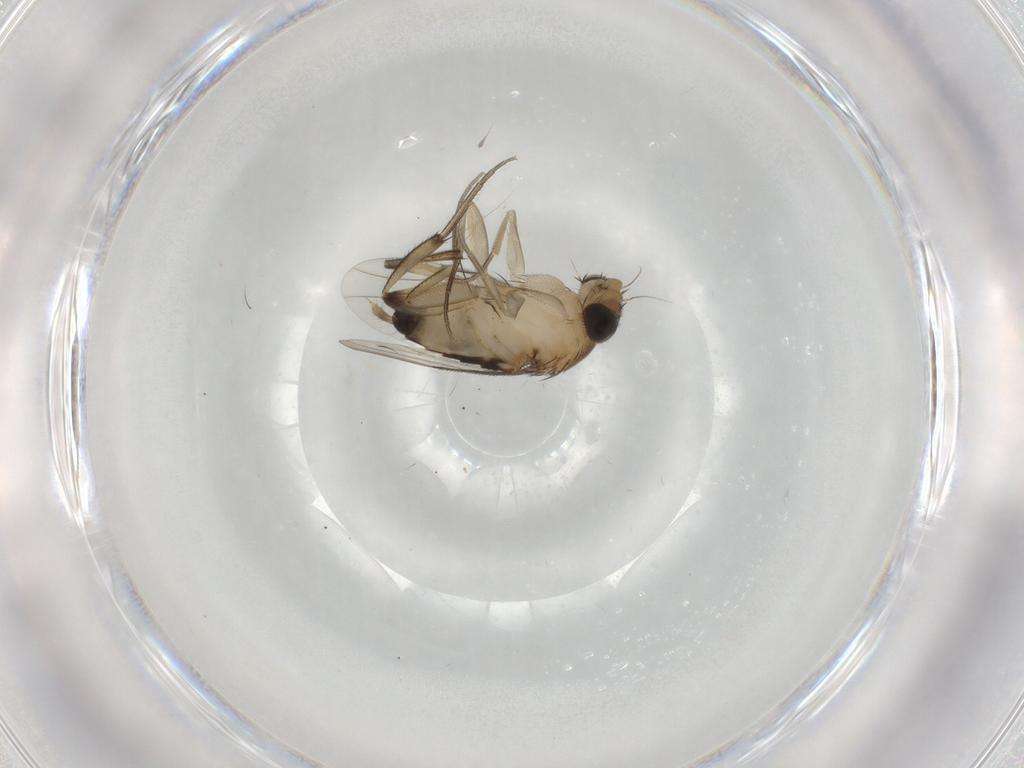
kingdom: Animalia
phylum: Arthropoda
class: Insecta
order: Diptera
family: Phoridae
